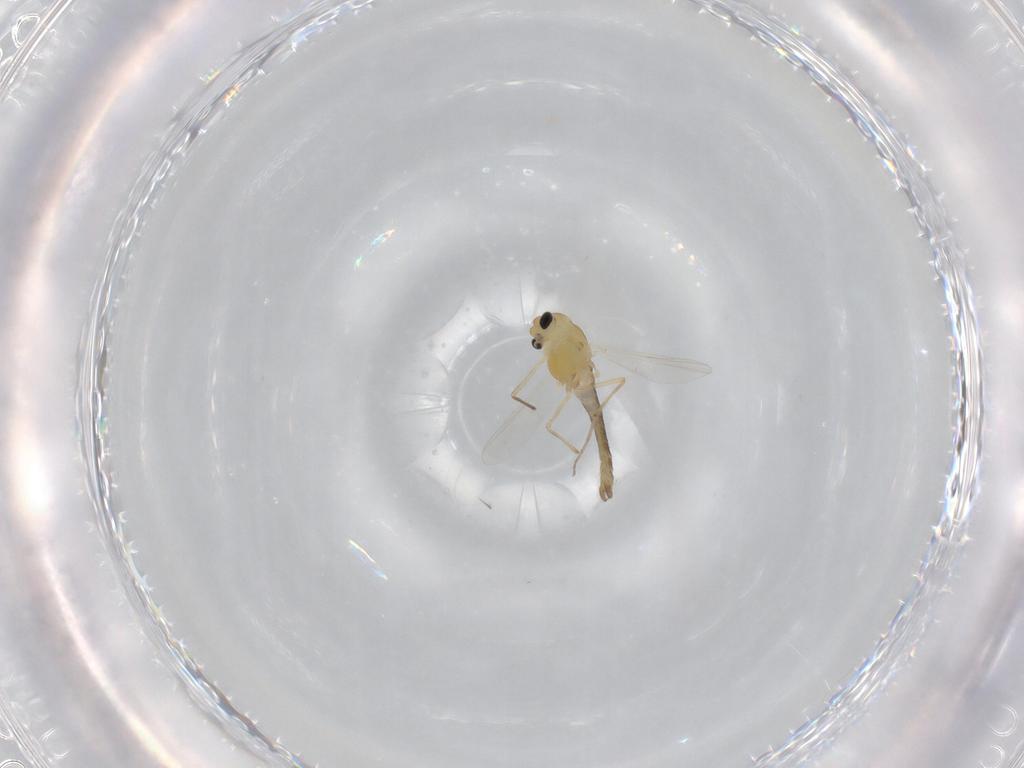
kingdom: Animalia
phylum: Arthropoda
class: Insecta
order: Diptera
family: Chironomidae
